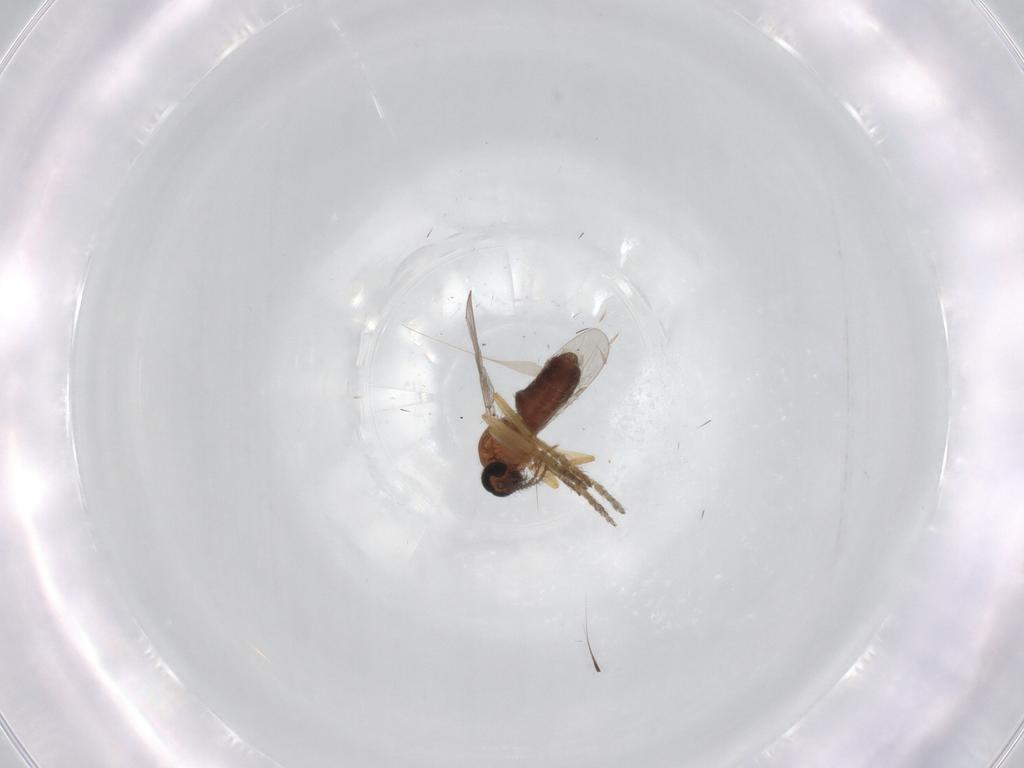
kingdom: Animalia
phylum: Arthropoda
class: Insecta
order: Diptera
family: Ceratopogonidae
